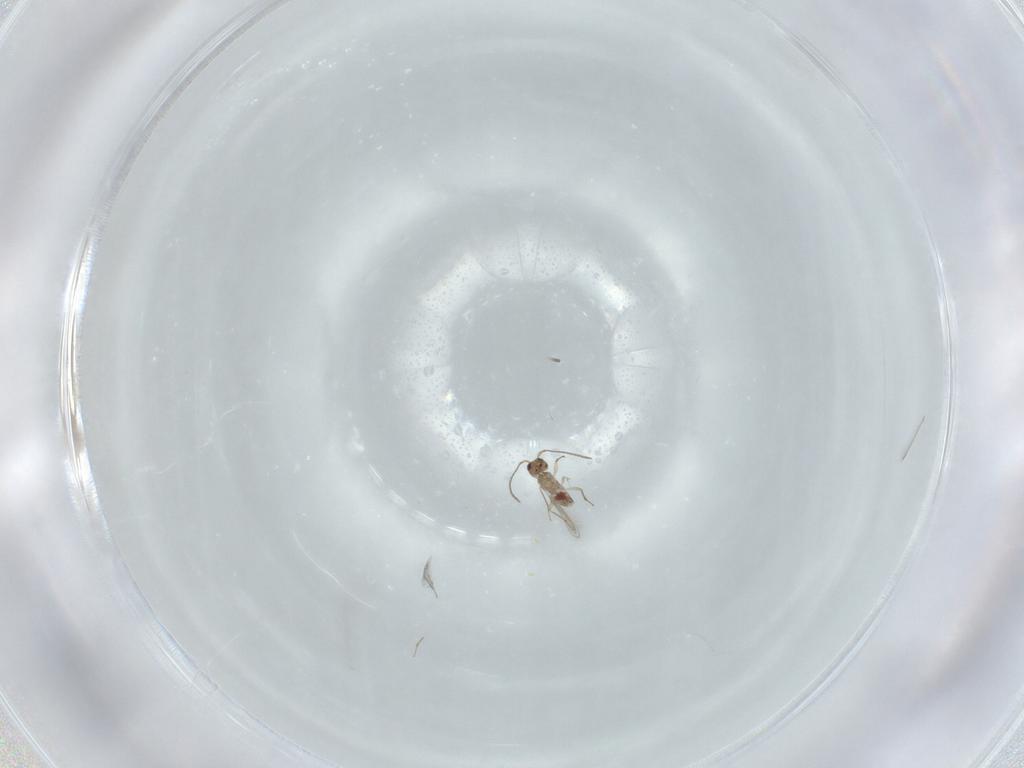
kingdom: Animalia
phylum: Arthropoda
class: Insecta
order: Hymenoptera
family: Mymaridae
